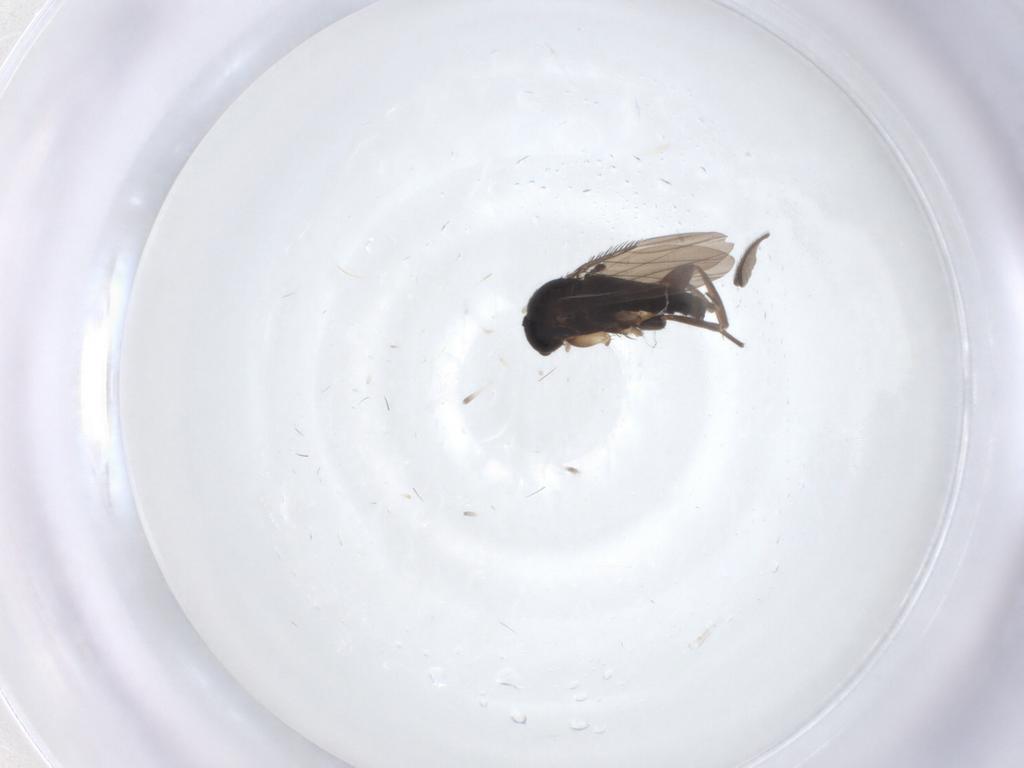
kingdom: Animalia
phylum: Arthropoda
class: Insecta
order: Diptera
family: Phoridae
